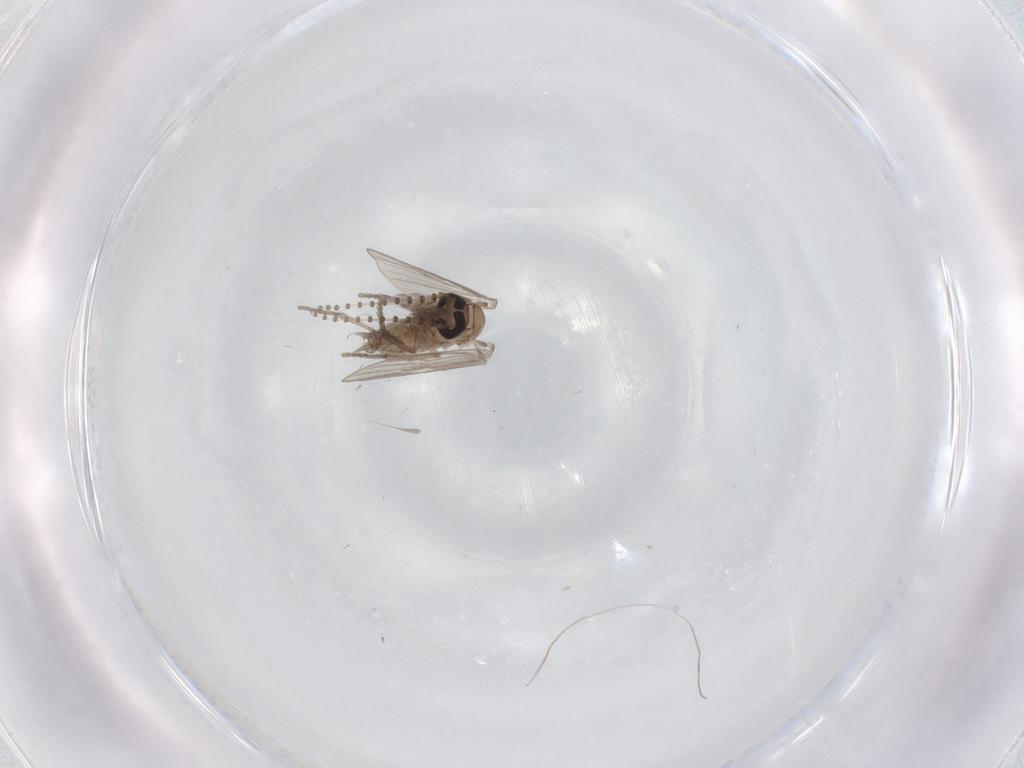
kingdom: Animalia
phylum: Arthropoda
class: Insecta
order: Diptera
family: Psychodidae
